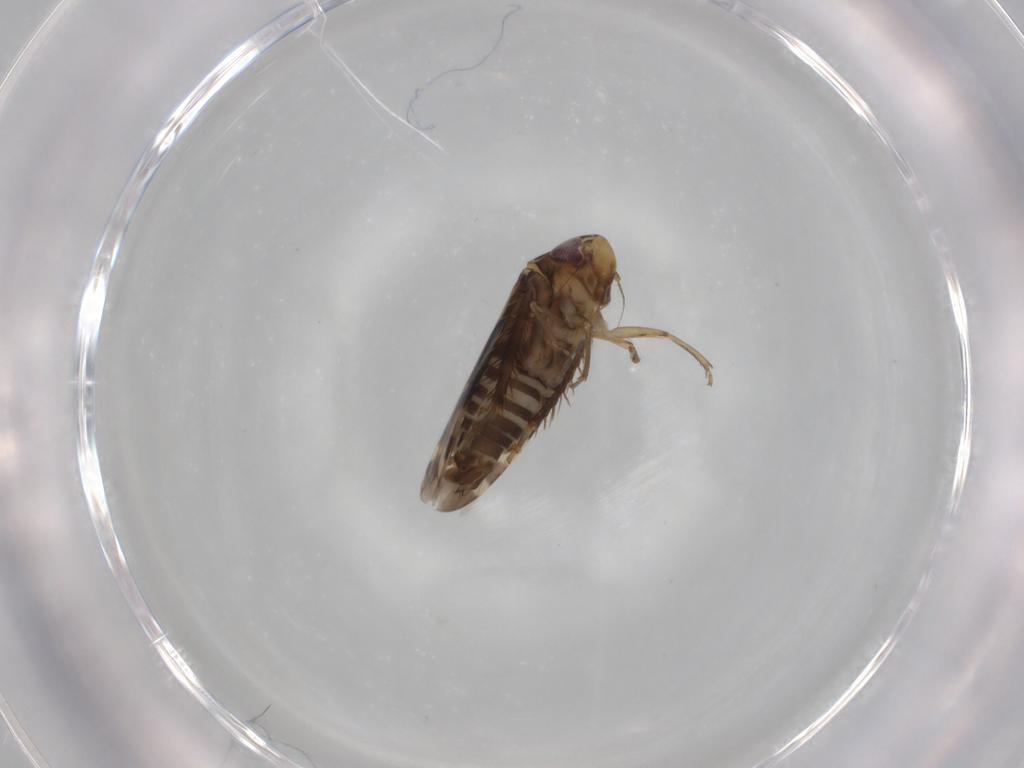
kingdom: Animalia
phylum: Arthropoda
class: Insecta
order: Hemiptera
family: Cicadellidae
